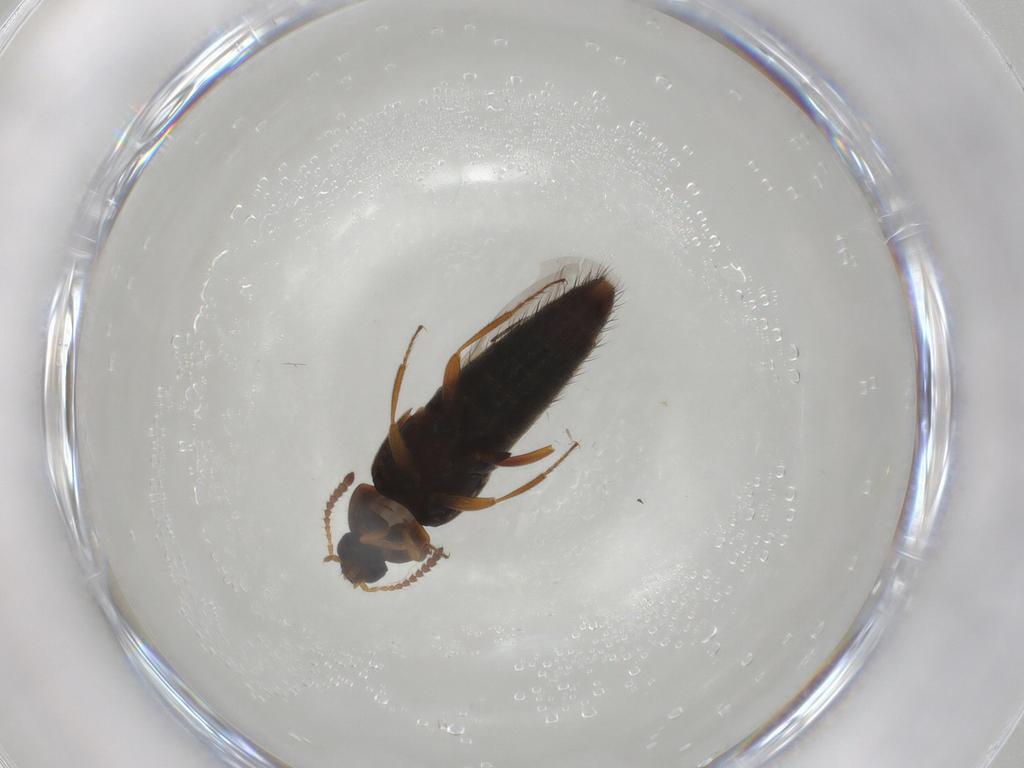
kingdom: Animalia
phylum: Arthropoda
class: Insecta
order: Coleoptera
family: Staphylinidae
